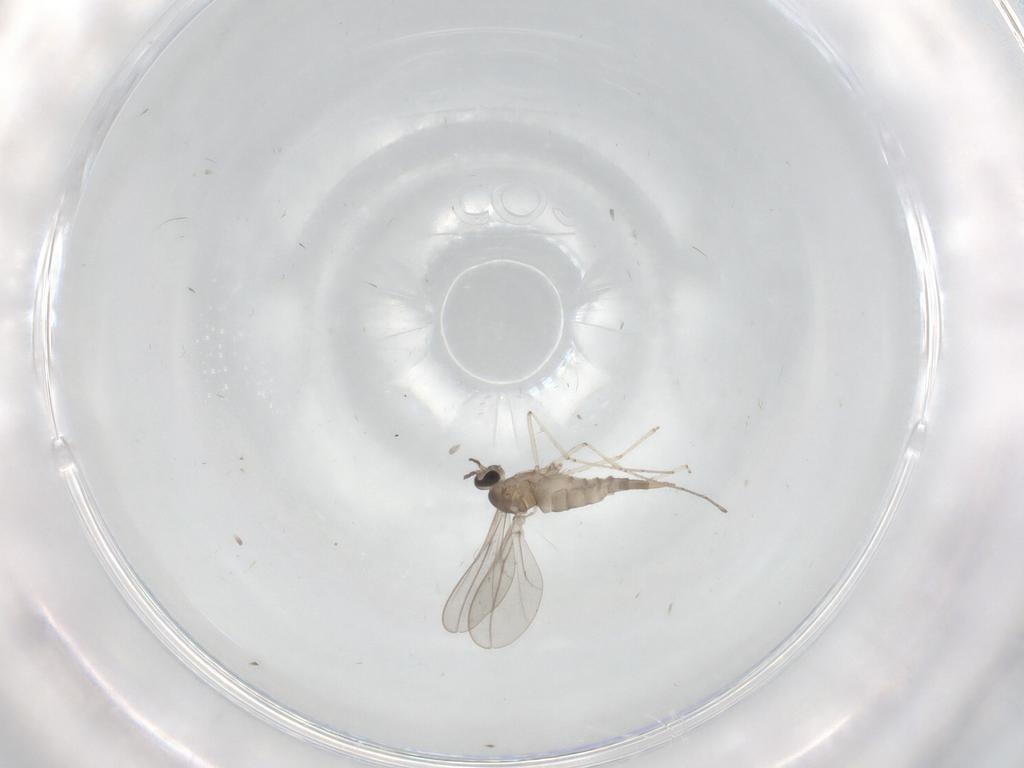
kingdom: Animalia
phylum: Arthropoda
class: Insecta
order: Diptera
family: Cecidomyiidae
